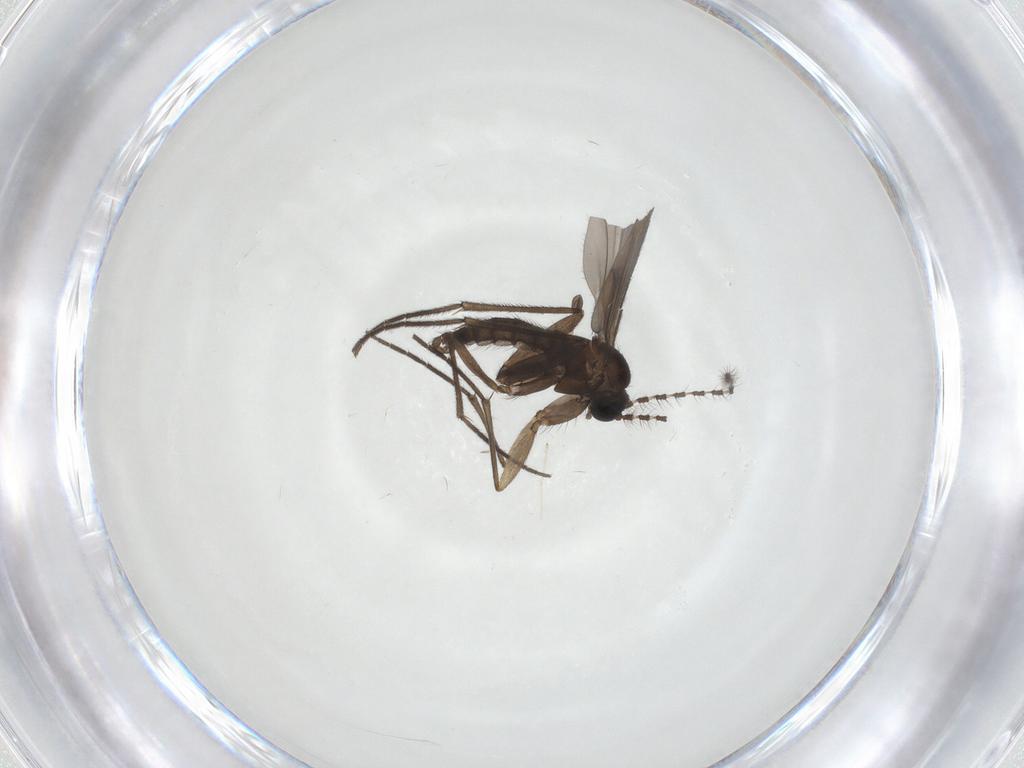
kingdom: Animalia
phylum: Arthropoda
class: Insecta
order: Diptera
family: Sciaridae
